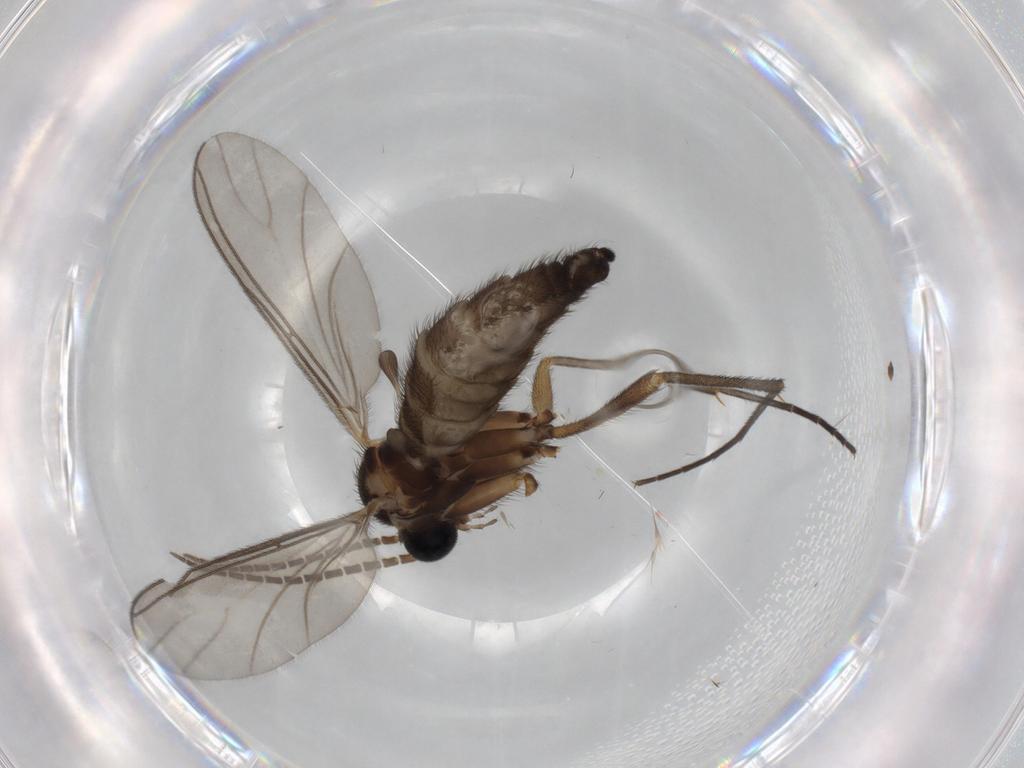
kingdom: Animalia
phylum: Arthropoda
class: Insecta
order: Diptera
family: Sciaridae
